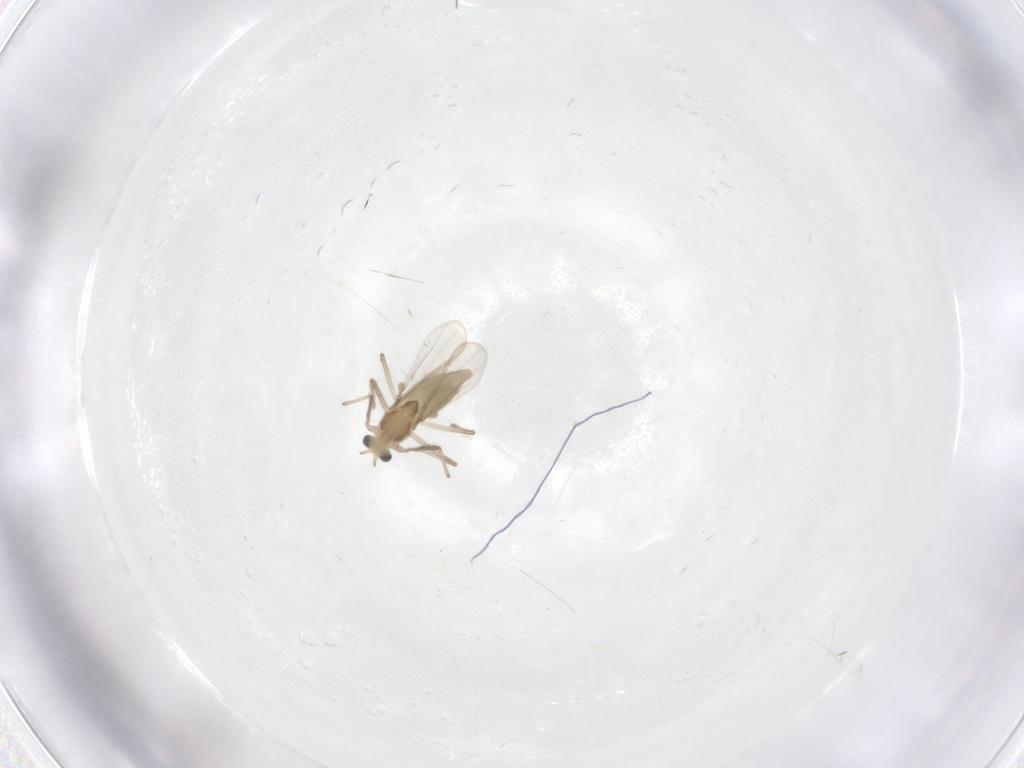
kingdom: Animalia
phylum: Arthropoda
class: Insecta
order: Diptera
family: Chironomidae
